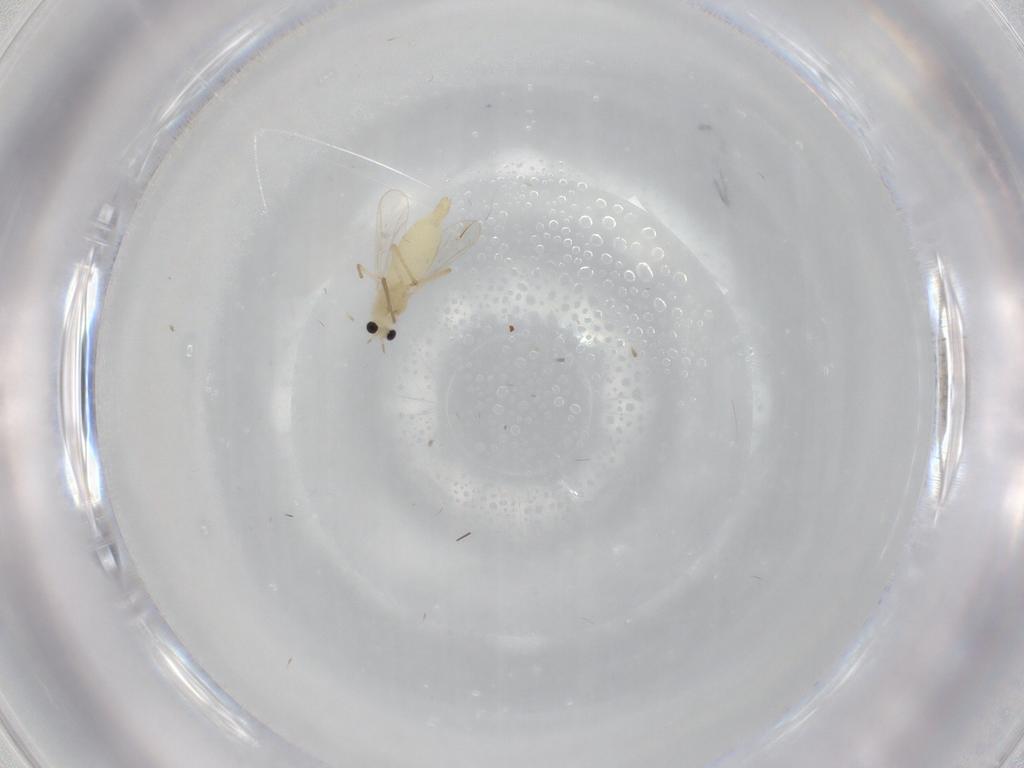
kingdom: Animalia
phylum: Arthropoda
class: Insecta
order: Diptera
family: Chironomidae
